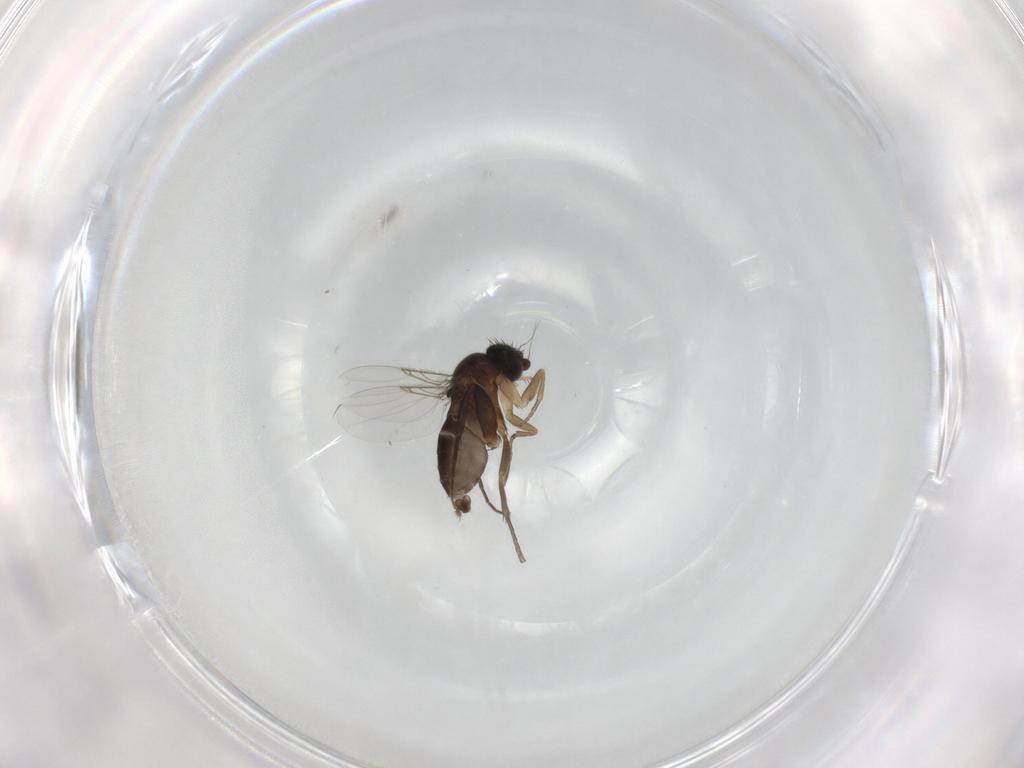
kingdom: Animalia
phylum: Arthropoda
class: Insecta
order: Diptera
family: Phoridae
